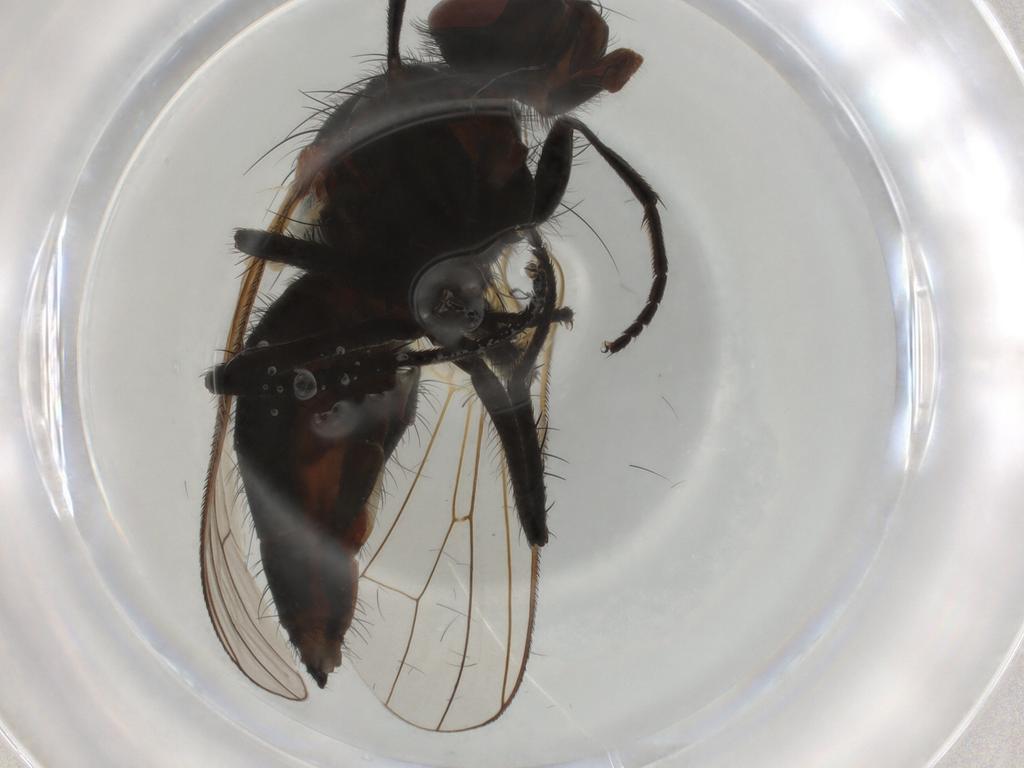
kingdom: Animalia
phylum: Arthropoda
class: Insecta
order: Diptera
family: Anthomyiidae
